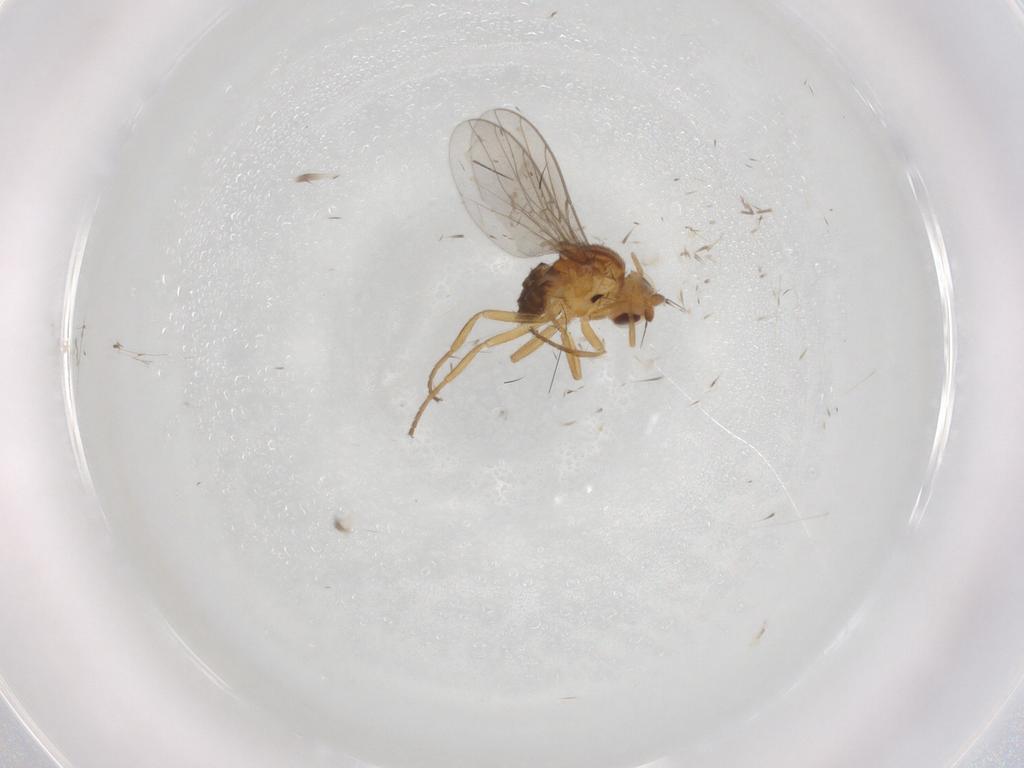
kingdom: Animalia
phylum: Arthropoda
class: Insecta
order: Diptera
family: Chloropidae
